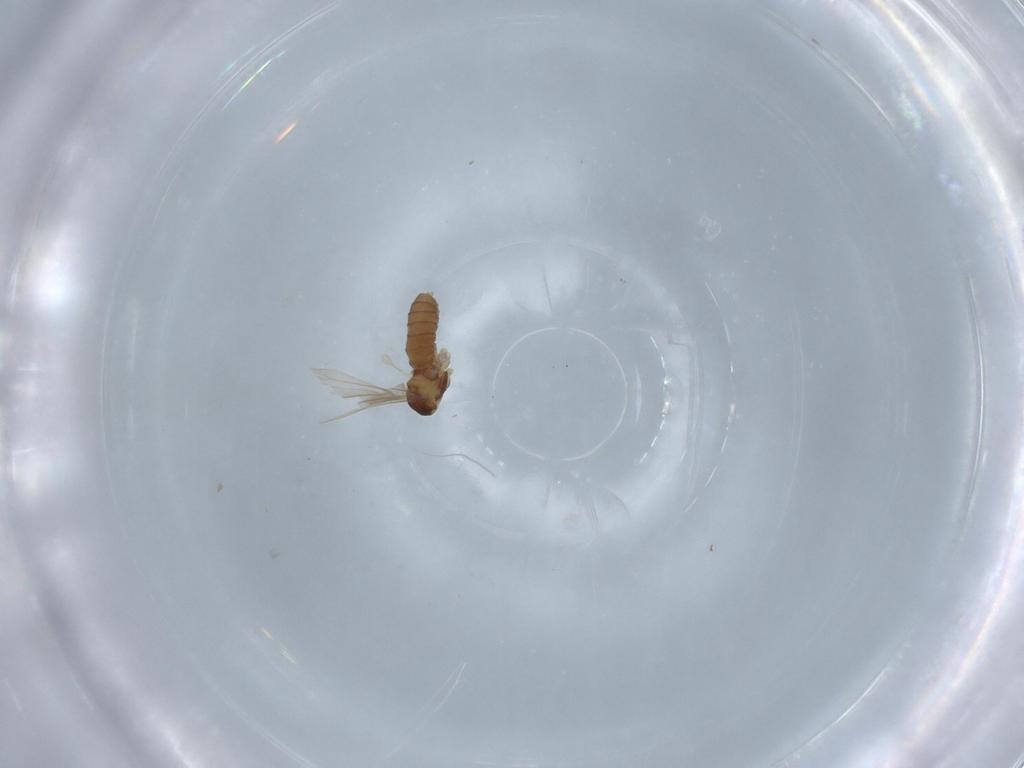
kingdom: Animalia
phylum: Arthropoda
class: Insecta
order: Diptera
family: Ceratopogonidae
